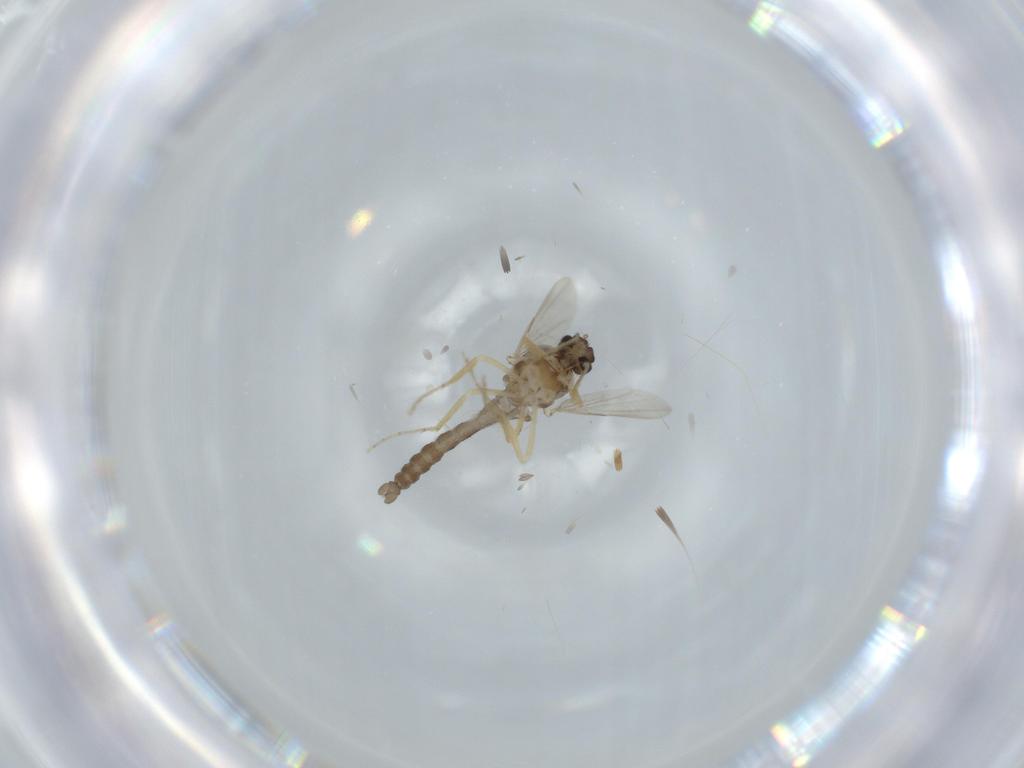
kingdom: Animalia
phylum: Arthropoda
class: Insecta
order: Diptera
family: Ceratopogonidae
